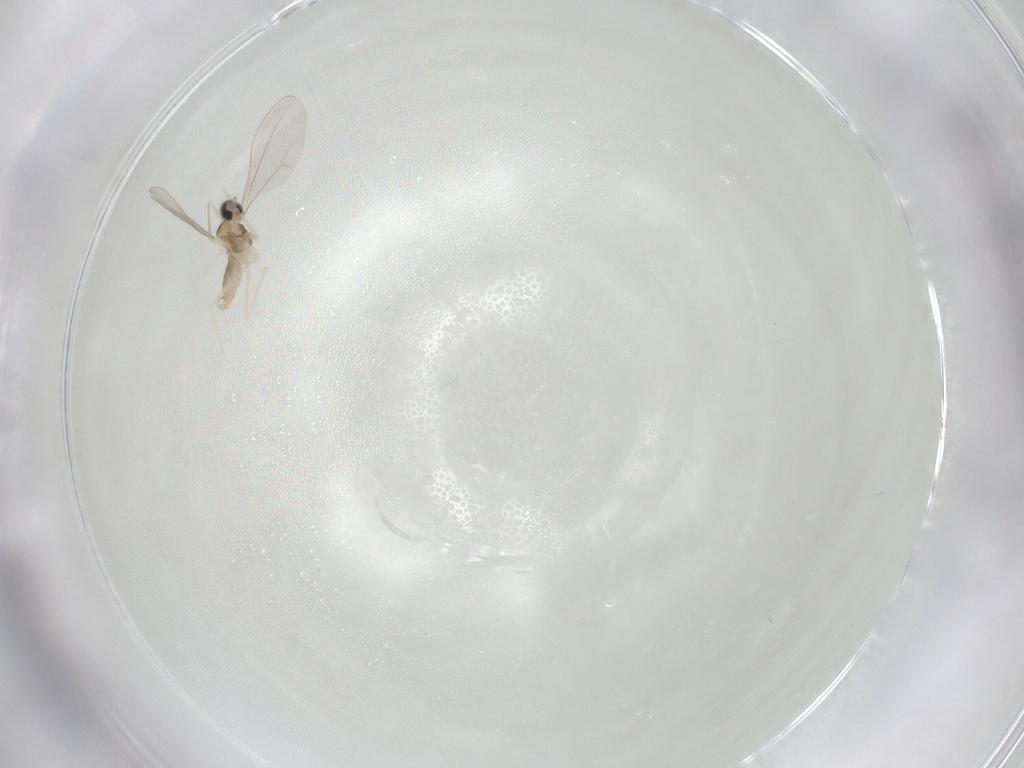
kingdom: Animalia
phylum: Arthropoda
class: Insecta
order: Diptera
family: Cecidomyiidae
